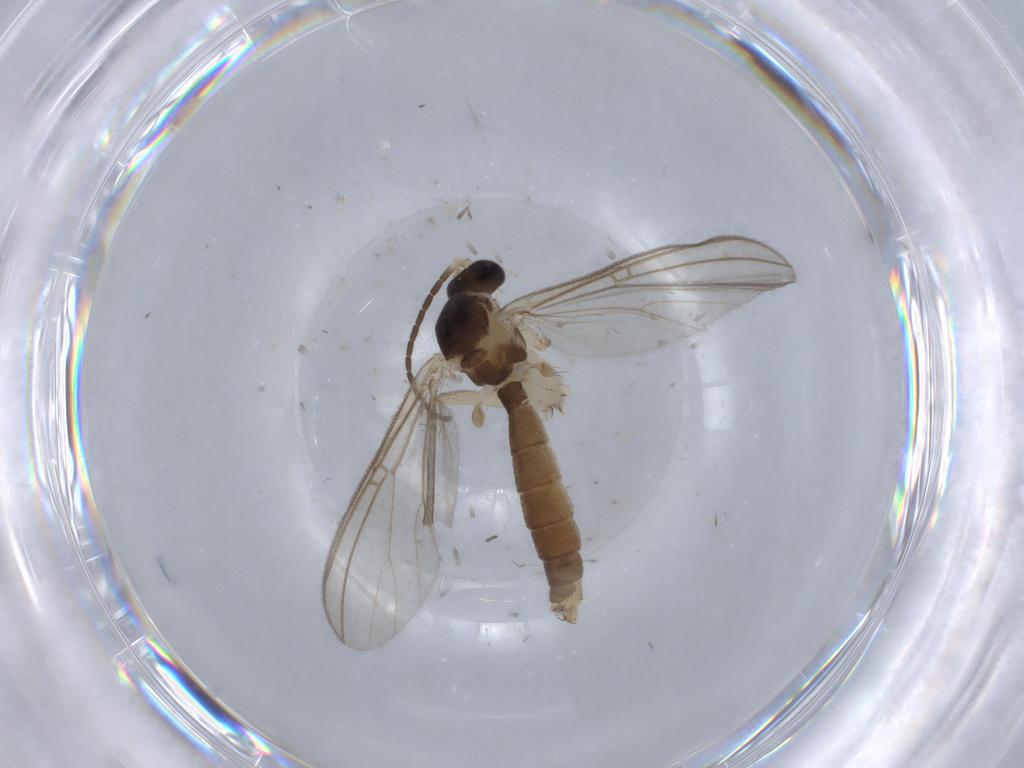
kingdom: Animalia
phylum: Arthropoda
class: Insecta
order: Diptera
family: Cecidomyiidae
